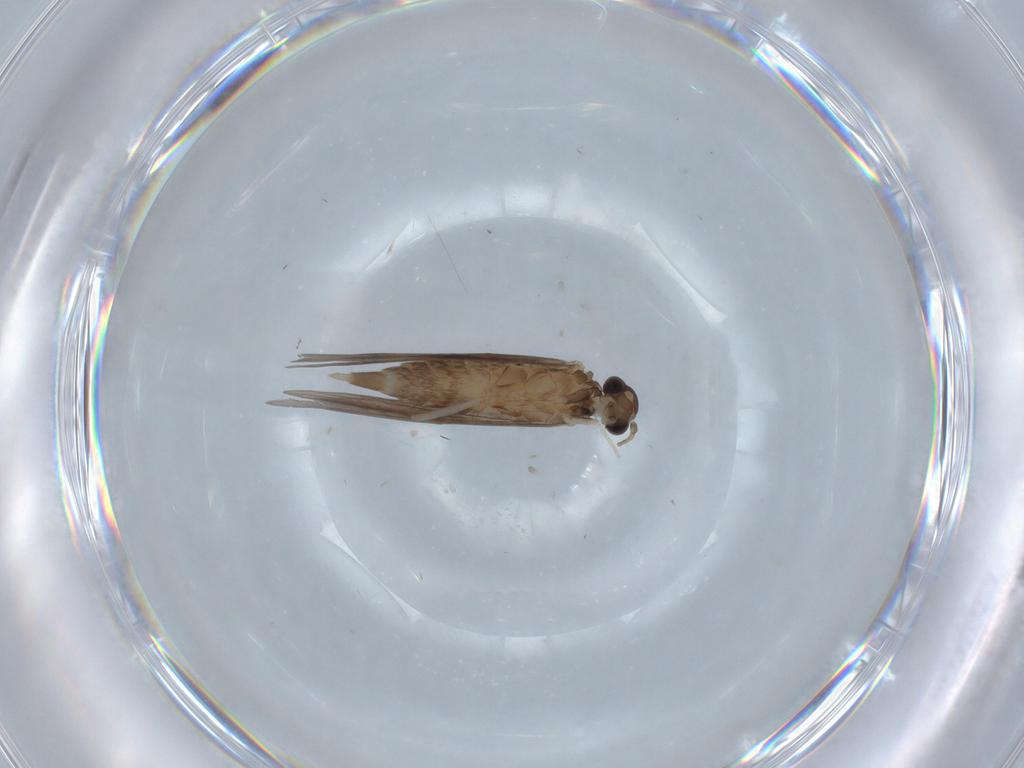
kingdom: Animalia
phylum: Arthropoda
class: Insecta
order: Trichoptera
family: Xiphocentronidae
